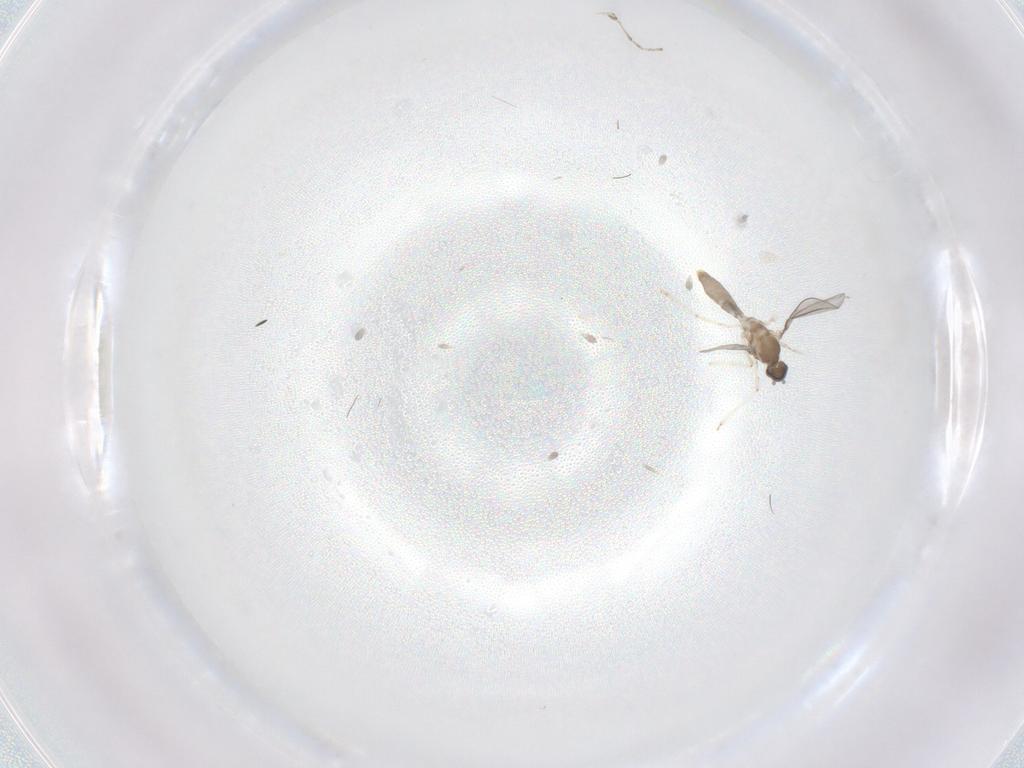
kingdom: Animalia
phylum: Arthropoda
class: Insecta
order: Diptera
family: Cecidomyiidae
